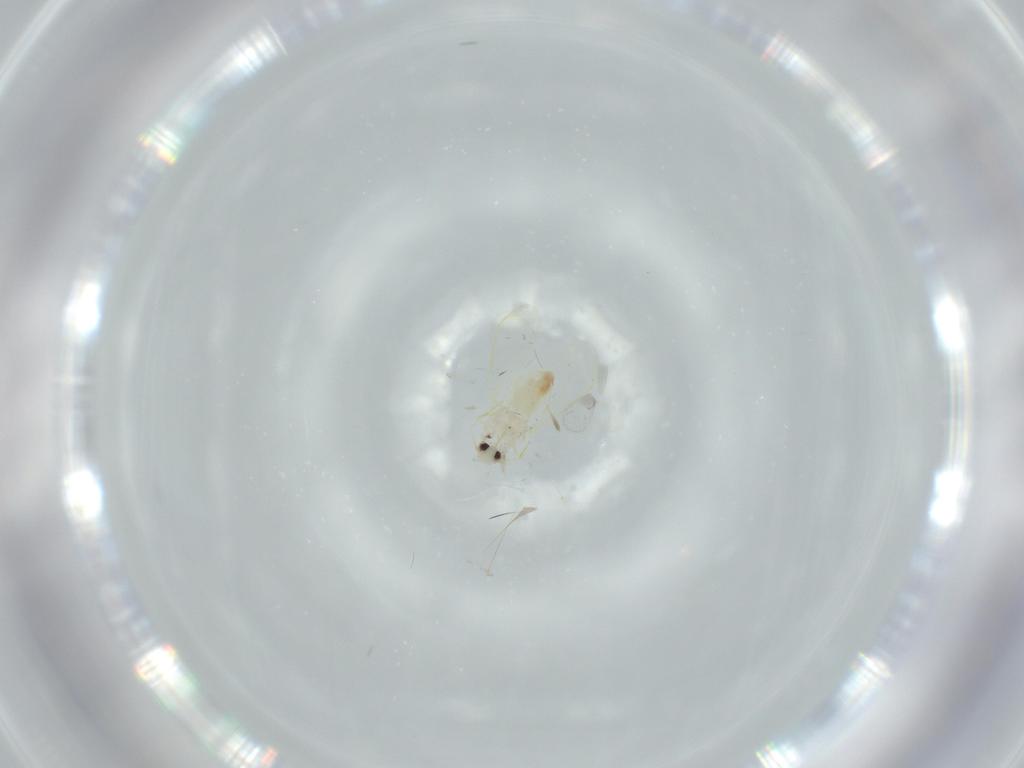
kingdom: Animalia
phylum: Arthropoda
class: Insecta
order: Hemiptera
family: Aleyrodidae
